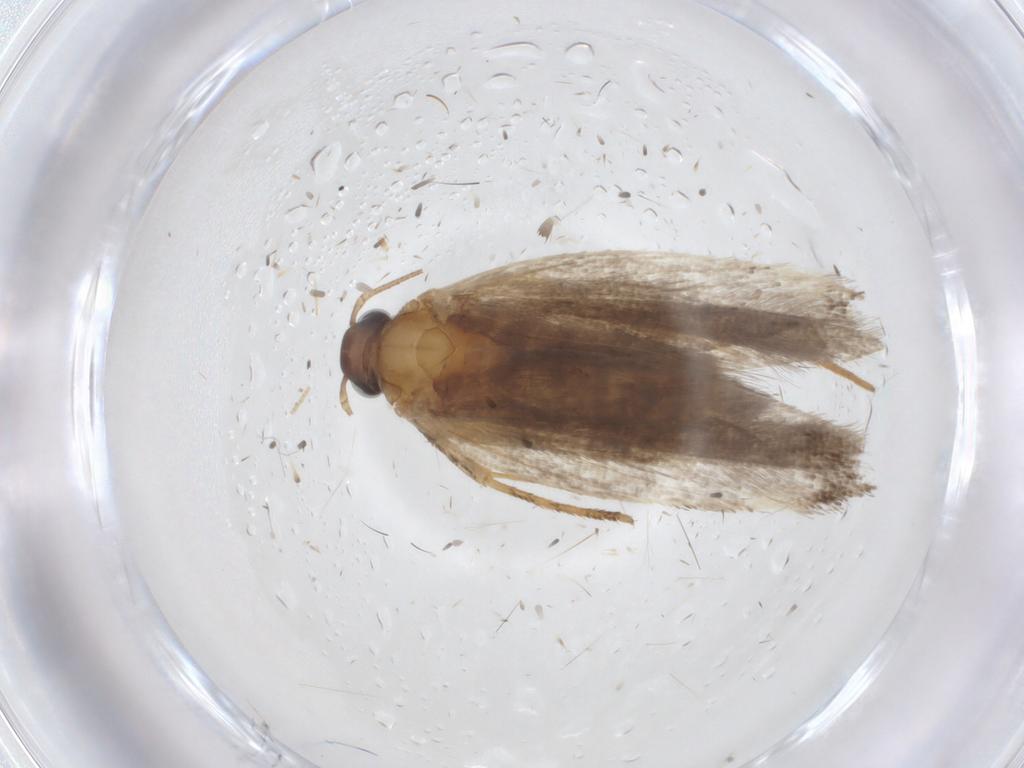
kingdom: Animalia
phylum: Arthropoda
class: Insecta
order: Lepidoptera
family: Gelechiidae
